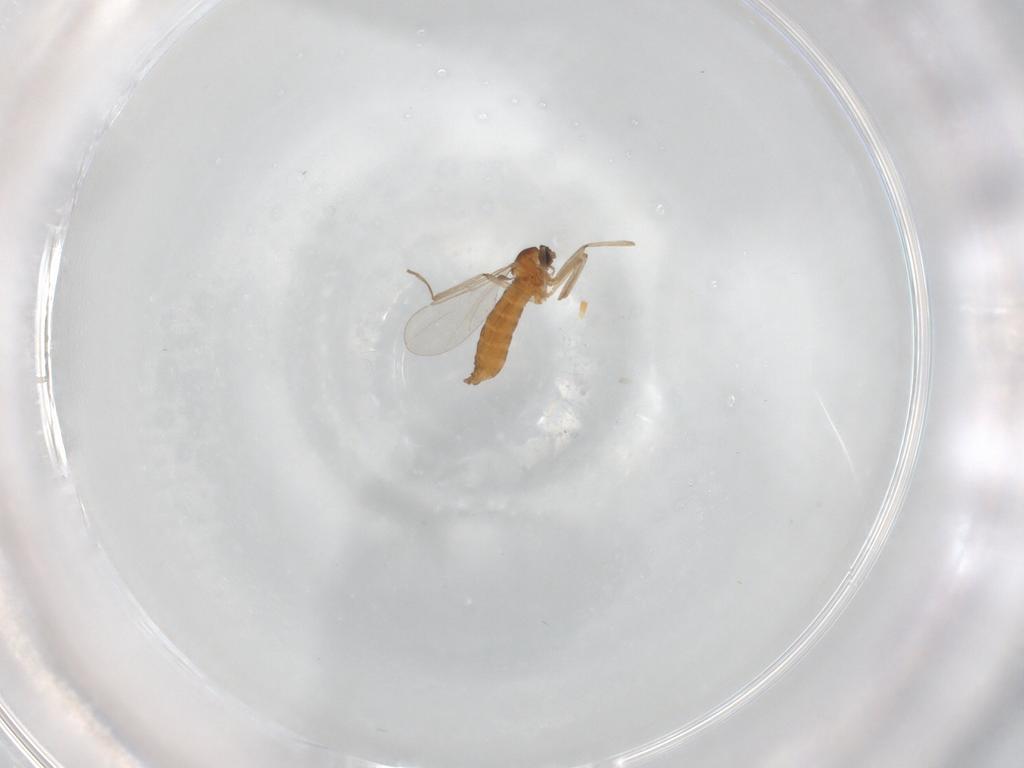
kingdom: Animalia
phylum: Arthropoda
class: Insecta
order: Diptera
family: Cecidomyiidae
